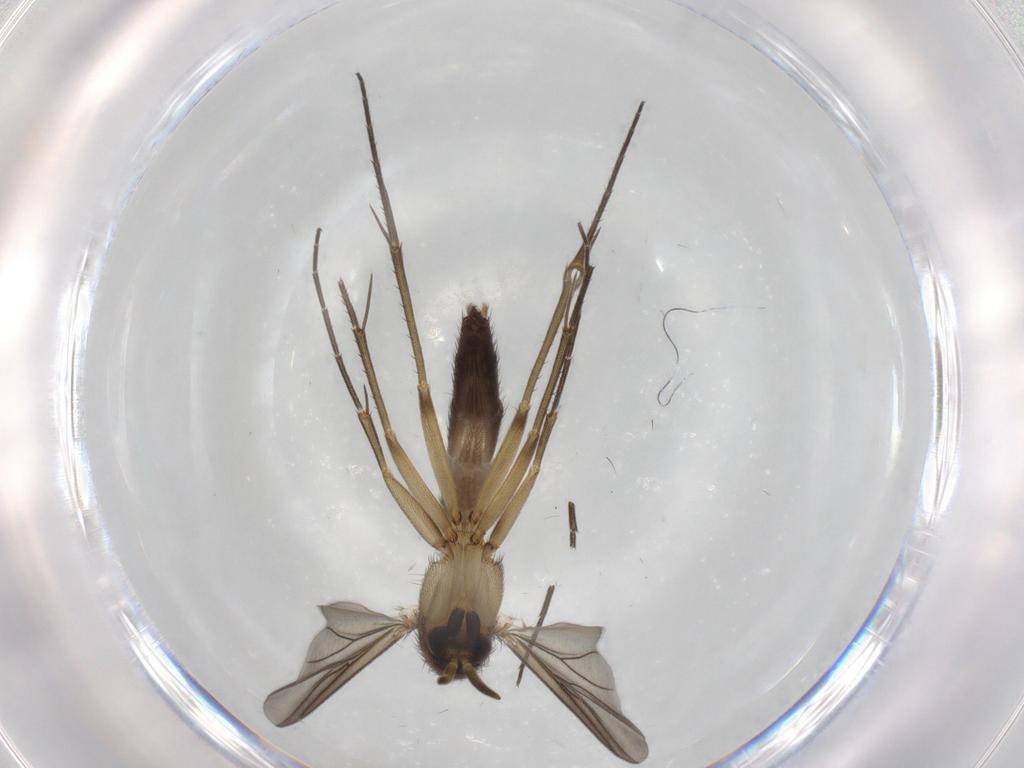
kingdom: Animalia
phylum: Arthropoda
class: Insecta
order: Diptera
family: Mycetophilidae
